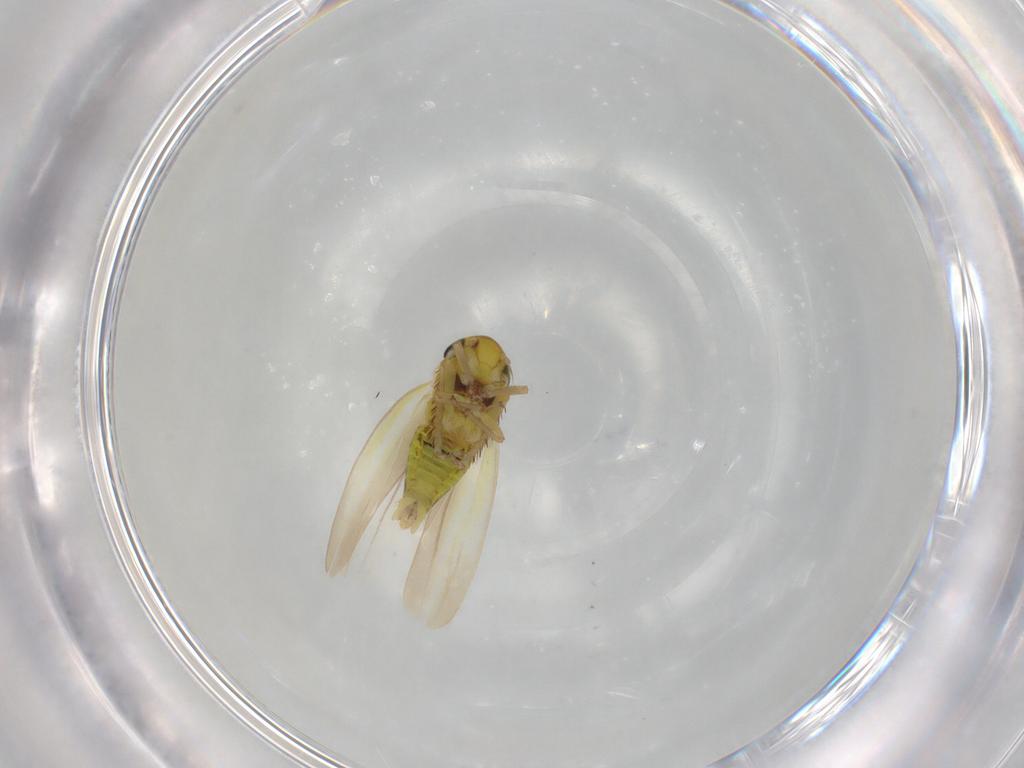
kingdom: Animalia
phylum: Arthropoda
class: Insecta
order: Hemiptera
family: Cicadellidae
